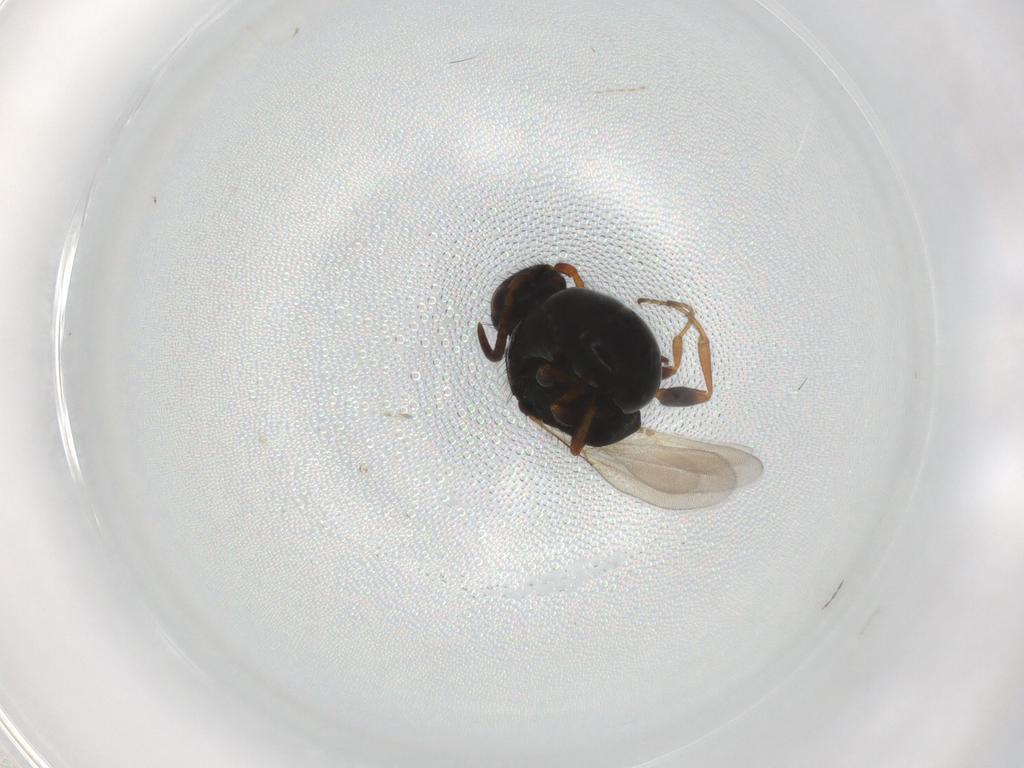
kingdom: Animalia
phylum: Arthropoda
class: Insecta
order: Hymenoptera
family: Bethylidae
